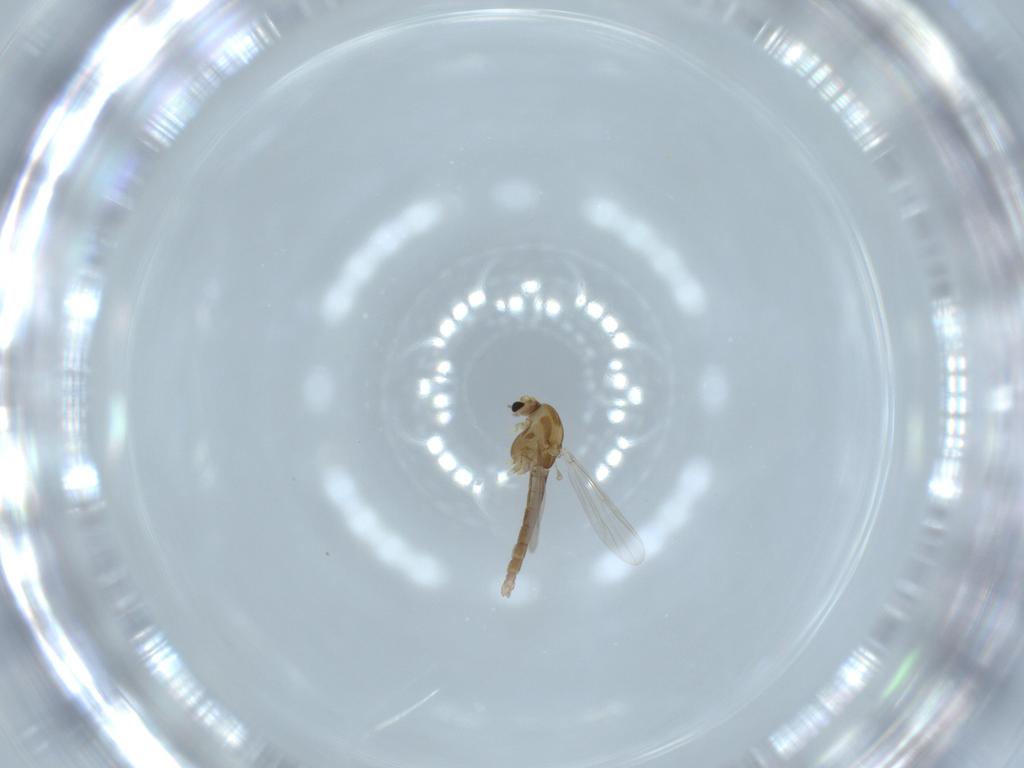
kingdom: Animalia
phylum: Arthropoda
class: Insecta
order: Diptera
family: Chironomidae
